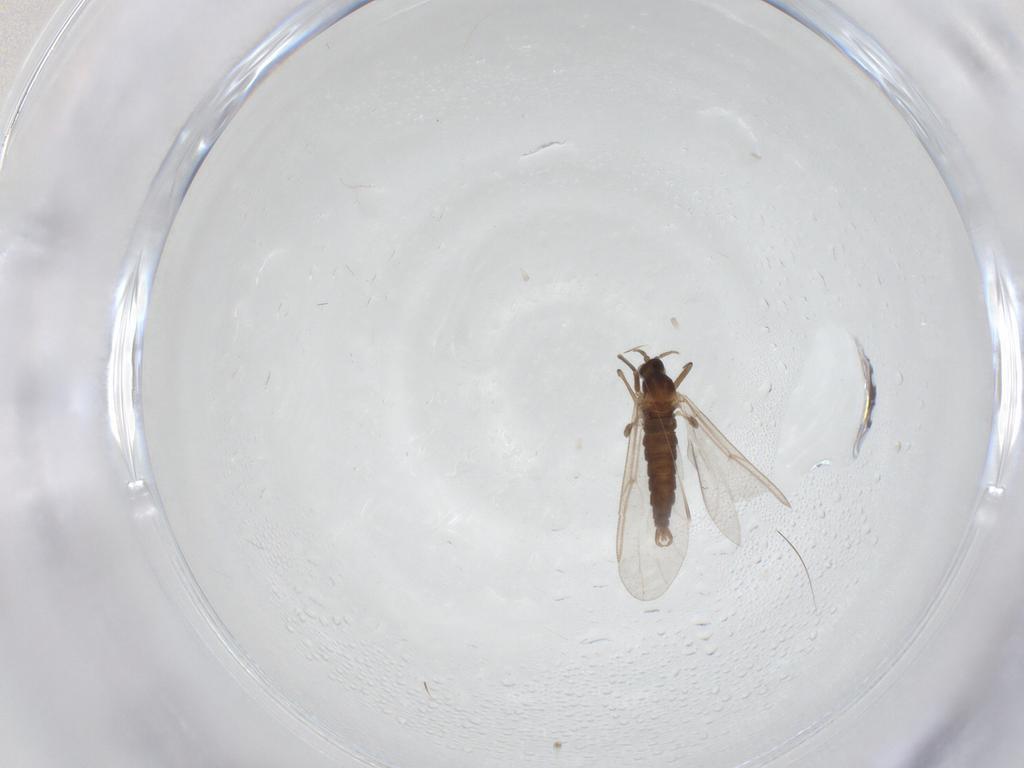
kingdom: Animalia
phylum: Arthropoda
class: Insecta
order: Diptera
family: Cecidomyiidae
